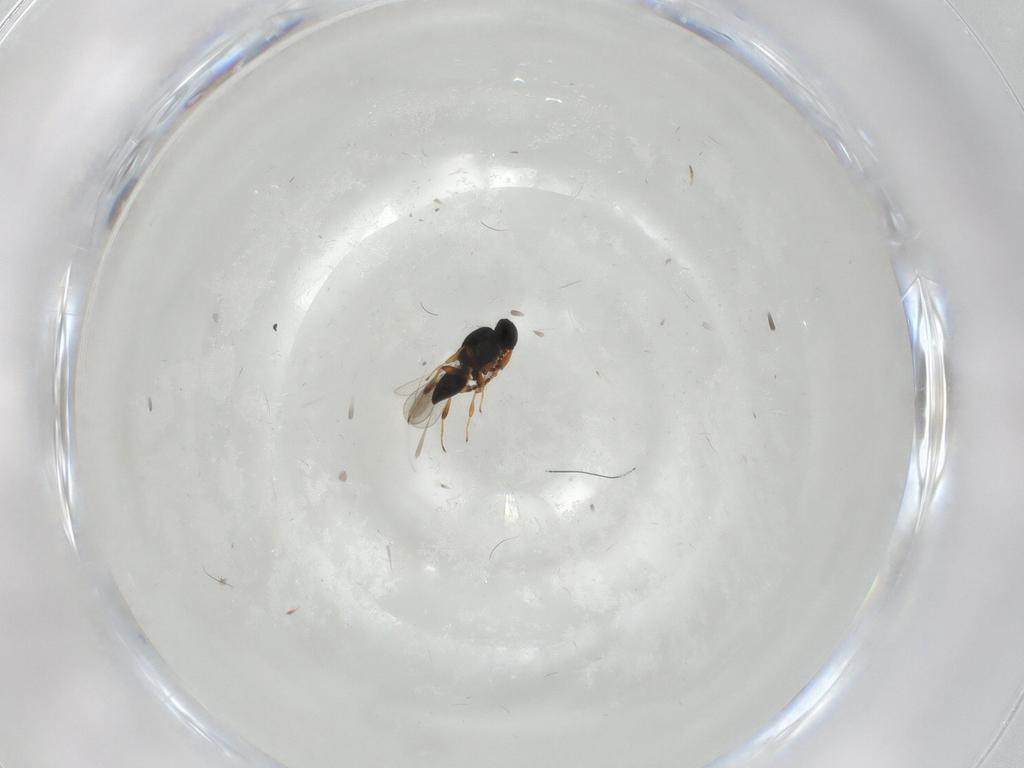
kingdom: Animalia
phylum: Arthropoda
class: Insecta
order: Hymenoptera
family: Platygastridae
